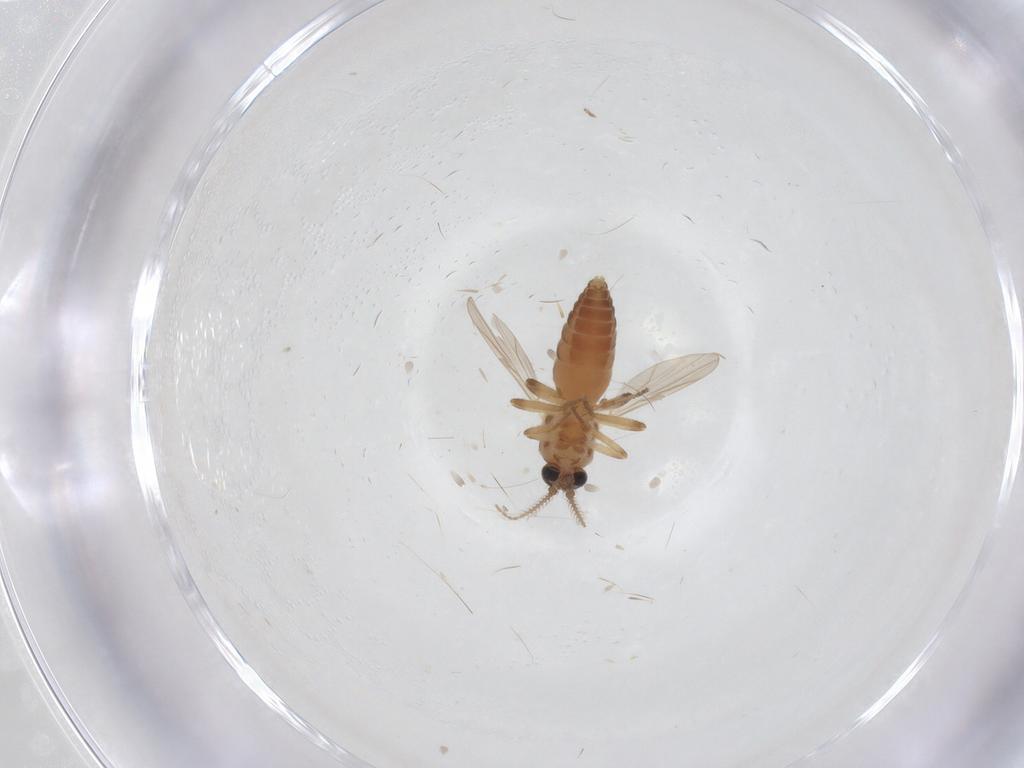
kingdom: Animalia
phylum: Arthropoda
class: Insecta
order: Diptera
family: Ceratopogonidae
